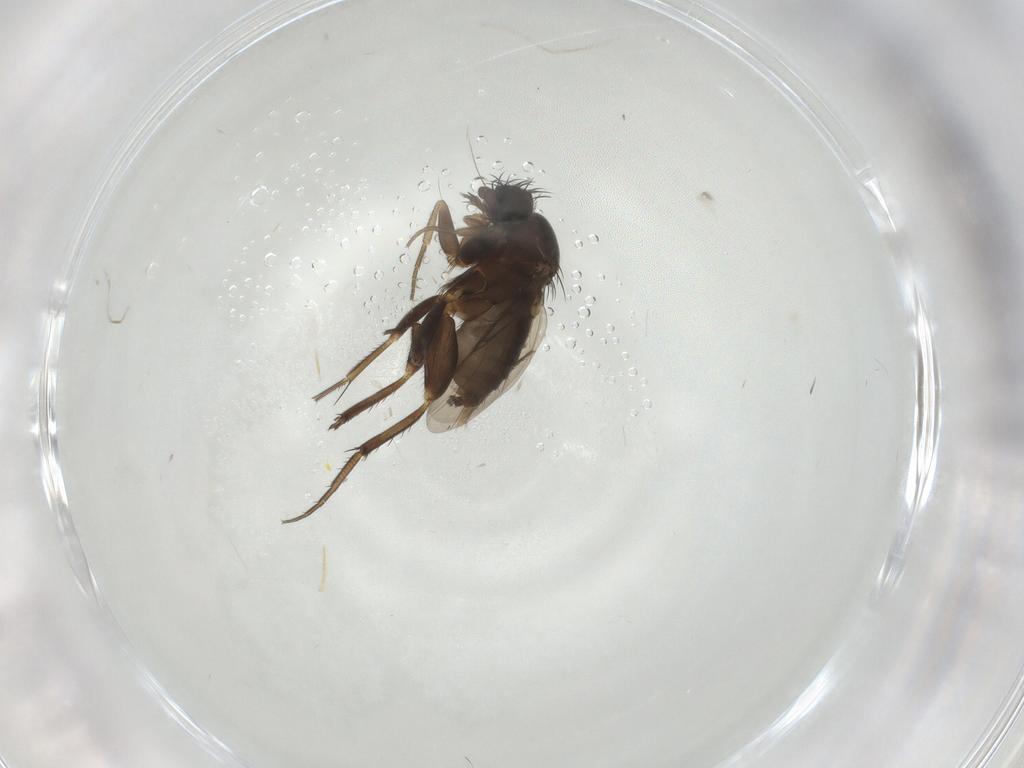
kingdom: Animalia
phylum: Arthropoda
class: Insecta
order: Diptera
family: Phoridae
